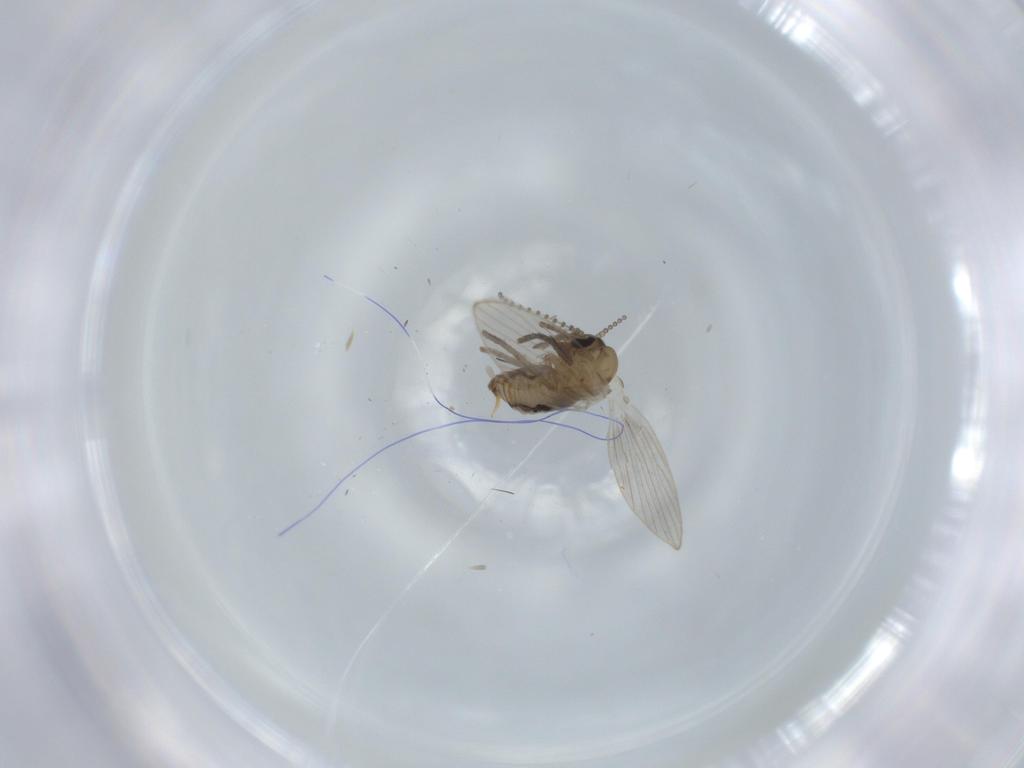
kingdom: Animalia
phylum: Arthropoda
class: Insecta
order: Diptera
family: Psychodidae
